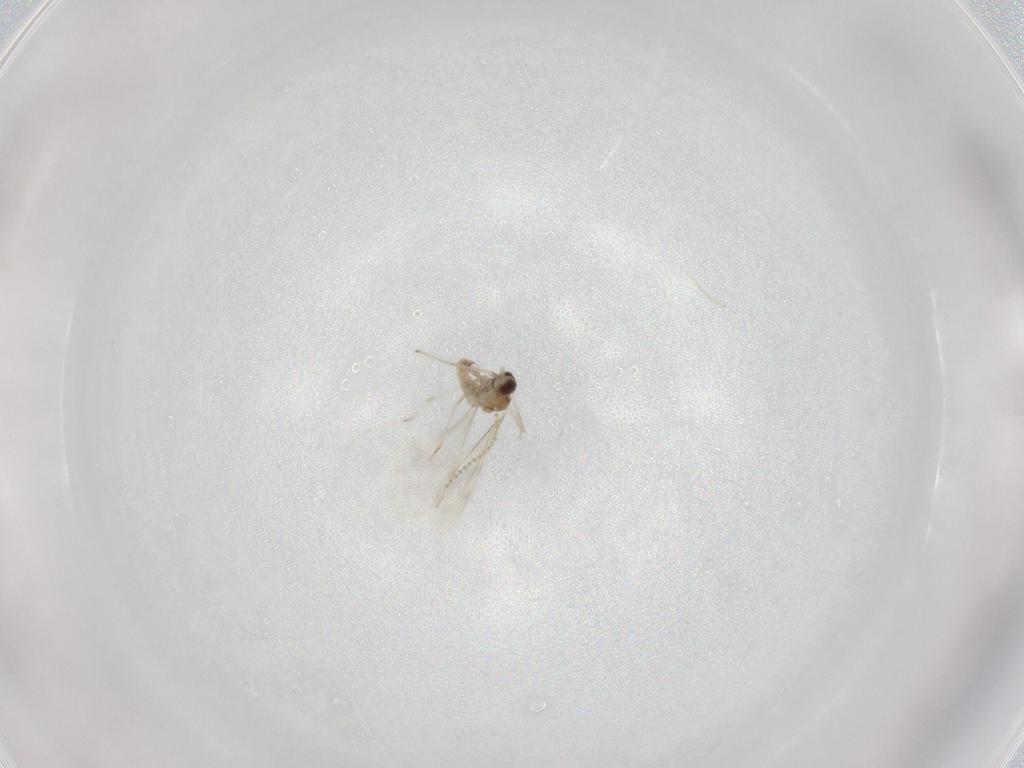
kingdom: Animalia
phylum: Arthropoda
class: Insecta
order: Diptera
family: Cecidomyiidae
